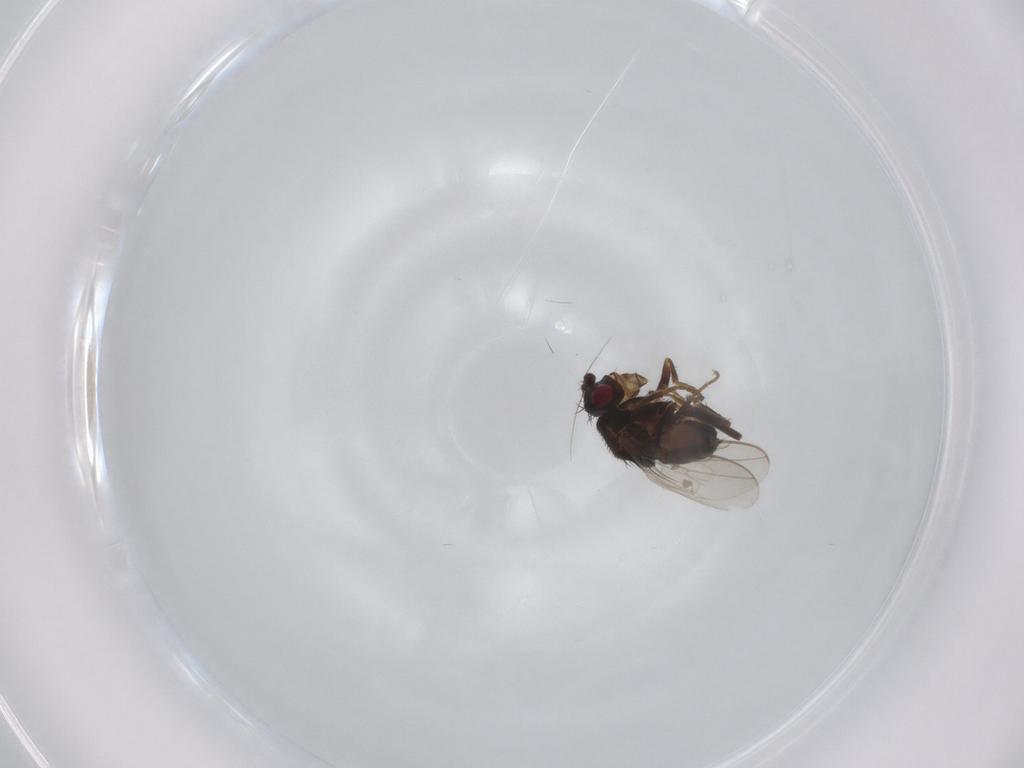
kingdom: Animalia
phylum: Arthropoda
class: Insecta
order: Diptera
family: Sphaeroceridae
